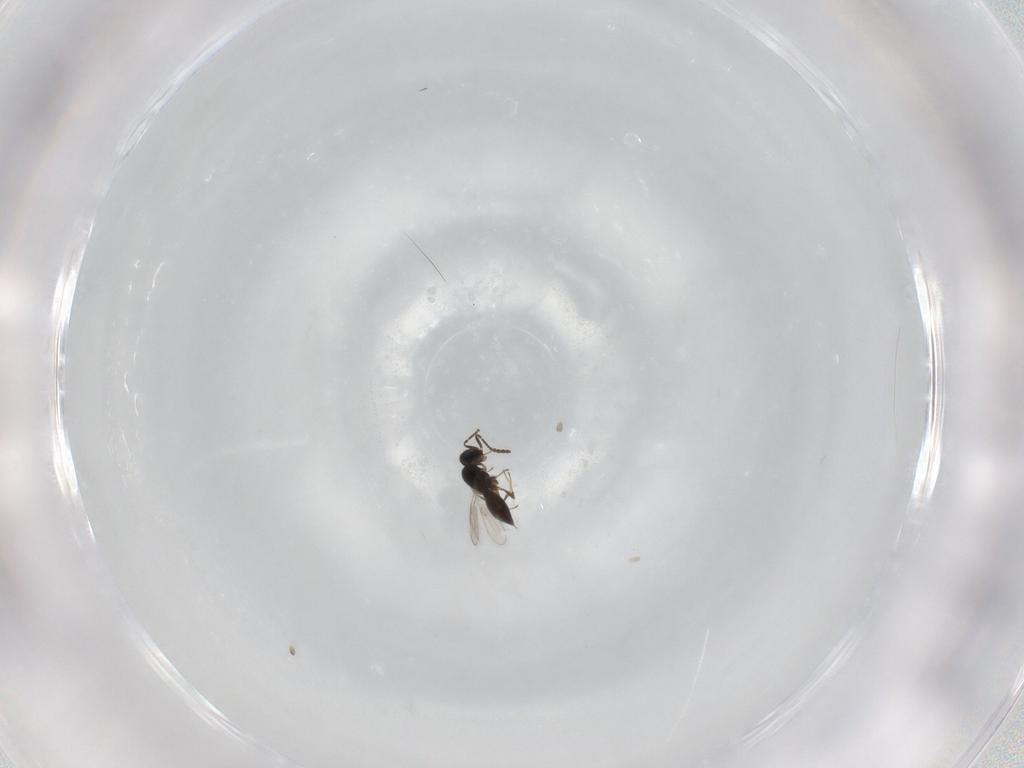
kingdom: Animalia
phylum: Arthropoda
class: Insecta
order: Hymenoptera
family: Scelionidae
